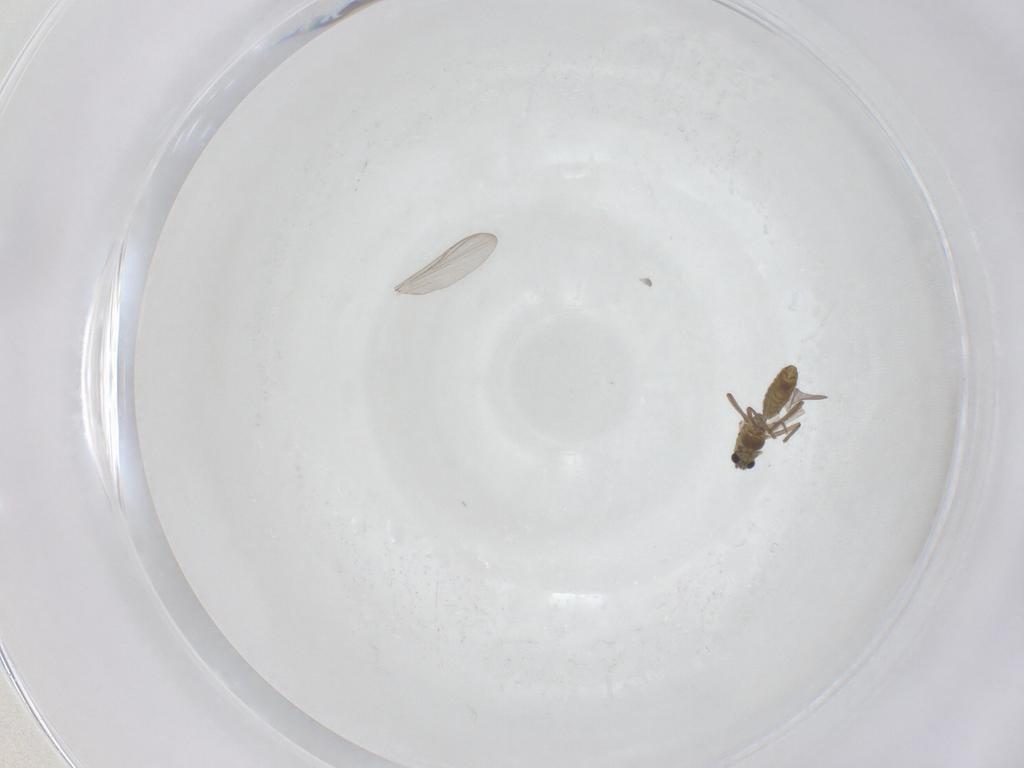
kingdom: Animalia
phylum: Arthropoda
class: Insecta
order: Diptera
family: Chironomidae
